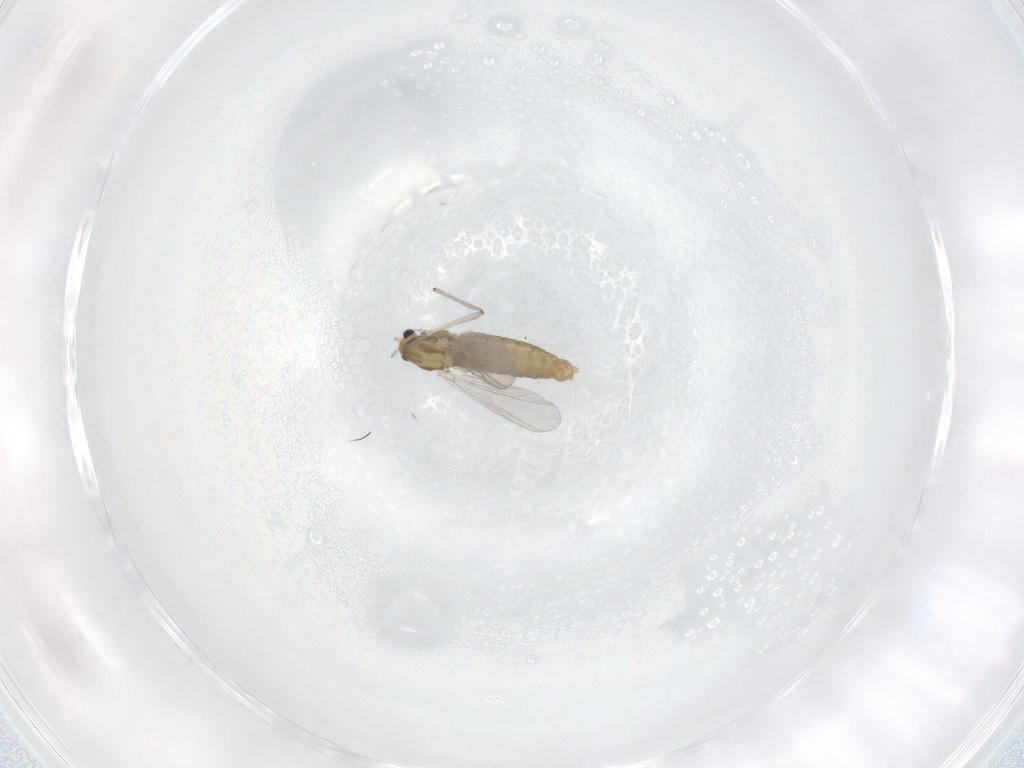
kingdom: Animalia
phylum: Arthropoda
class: Insecta
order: Diptera
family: Chironomidae
